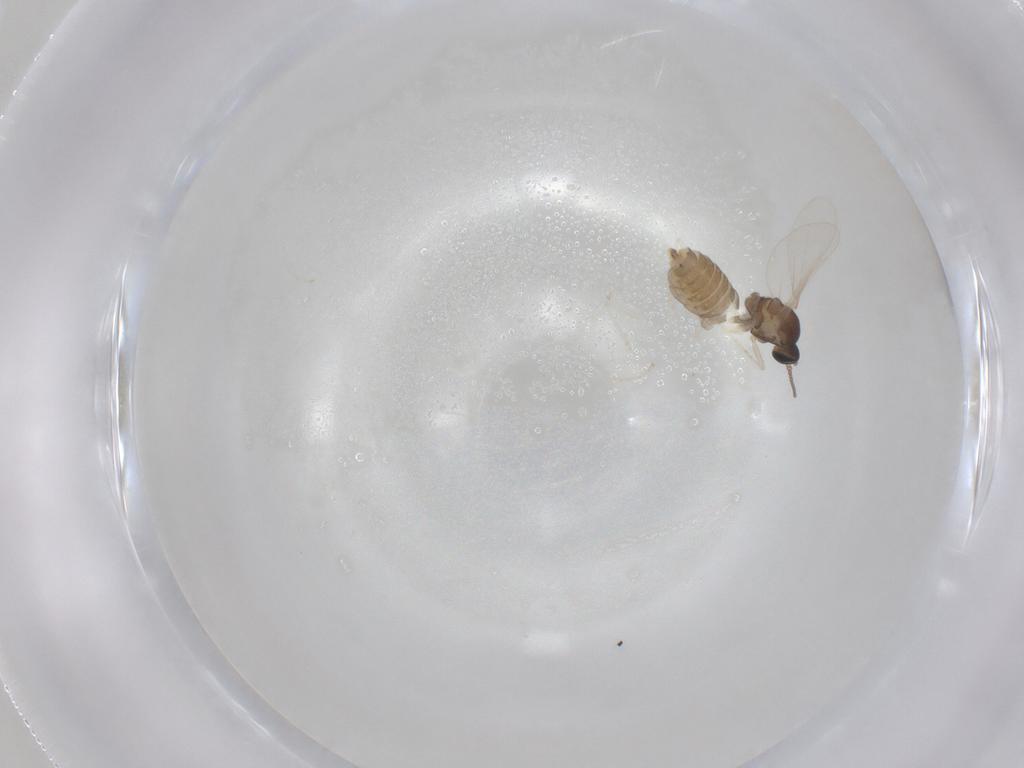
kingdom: Animalia
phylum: Arthropoda
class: Insecta
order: Diptera
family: Cecidomyiidae
